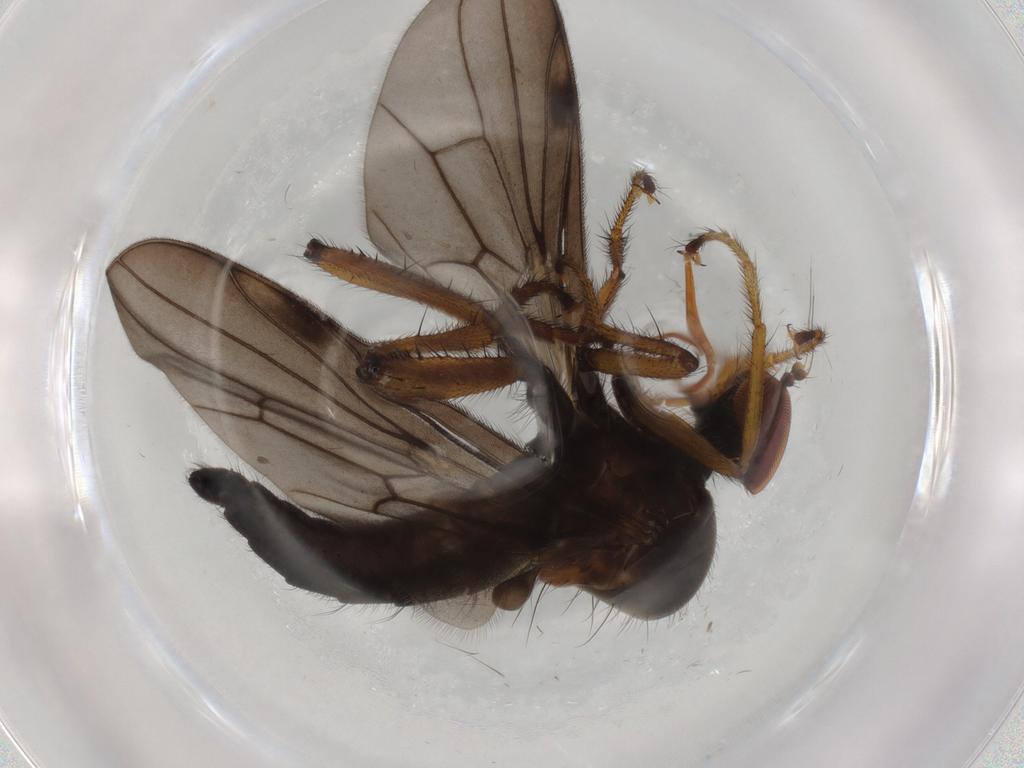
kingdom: Animalia
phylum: Arthropoda
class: Insecta
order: Diptera
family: Hybotidae
